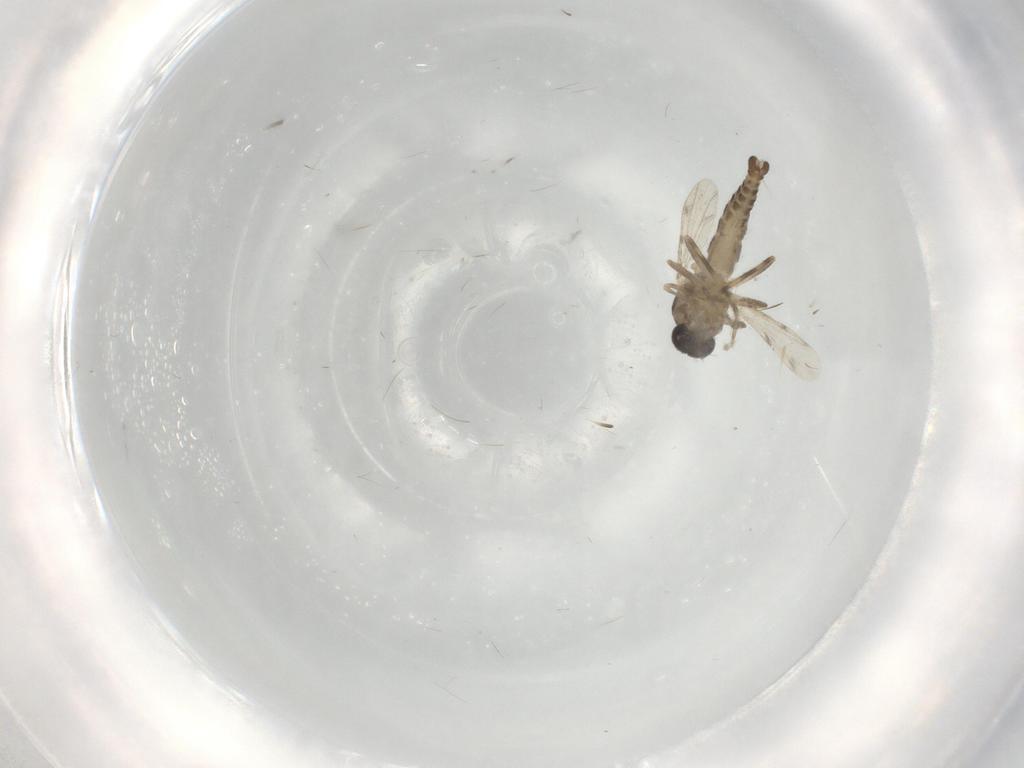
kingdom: Animalia
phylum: Arthropoda
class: Insecta
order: Diptera
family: Ceratopogonidae
